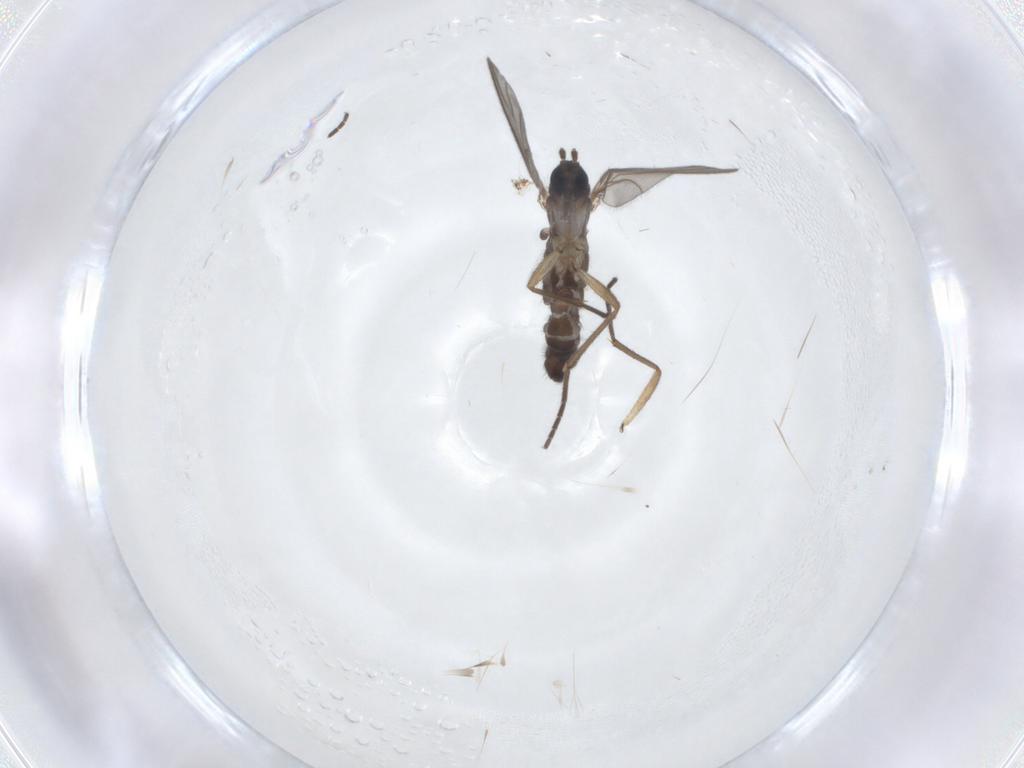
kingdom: Animalia
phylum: Arthropoda
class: Insecta
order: Diptera
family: Sciaridae
